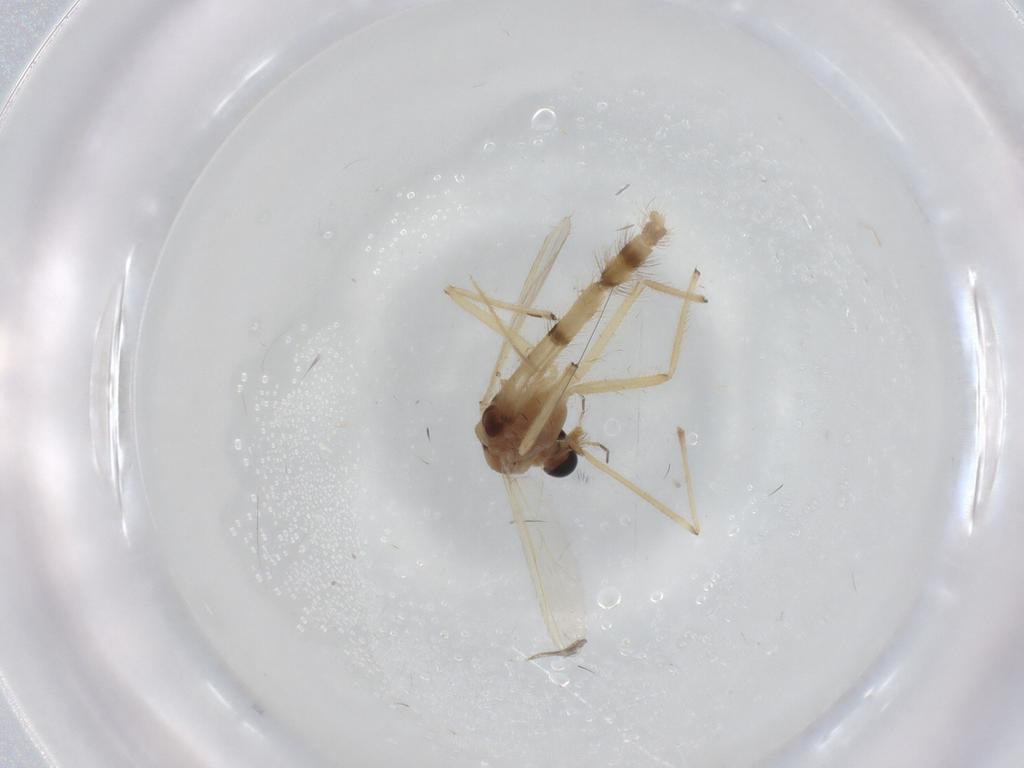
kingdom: Animalia
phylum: Arthropoda
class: Insecta
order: Diptera
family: Chironomidae
